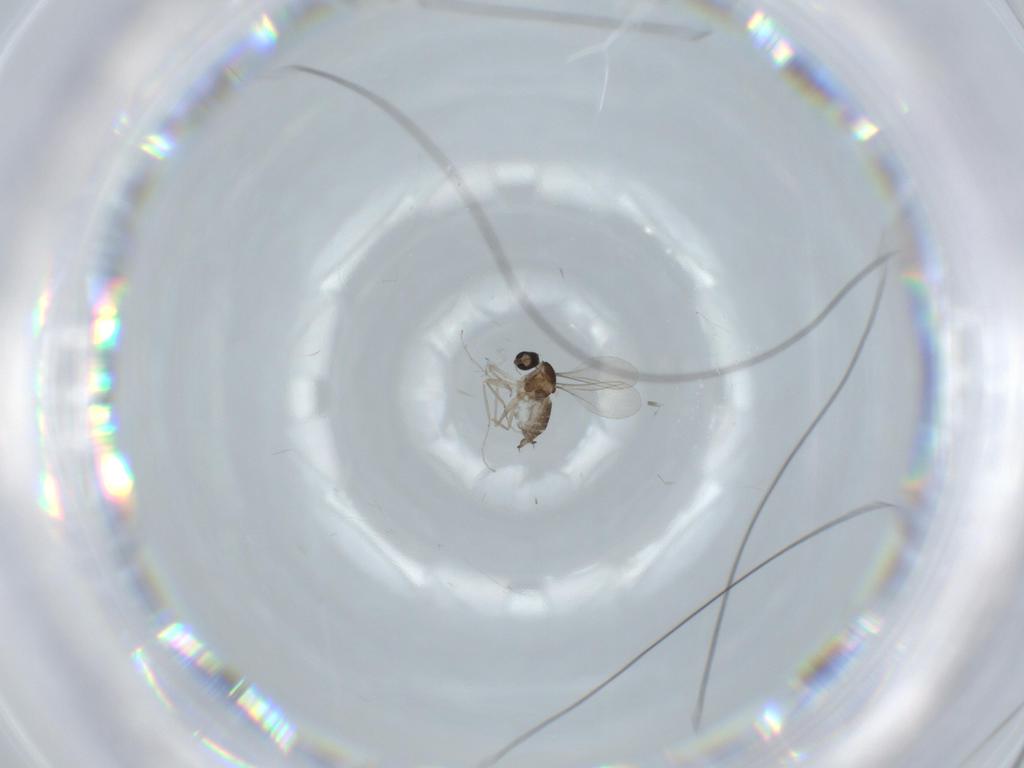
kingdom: Animalia
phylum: Arthropoda
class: Insecta
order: Diptera
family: Cecidomyiidae
